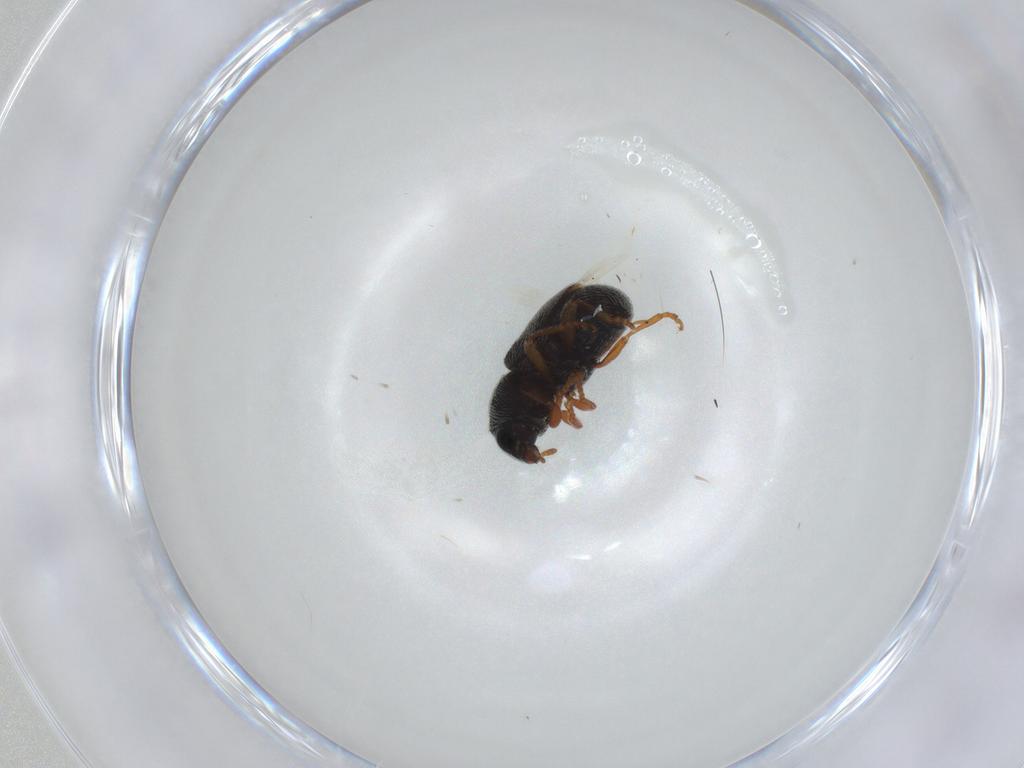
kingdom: Animalia
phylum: Arthropoda
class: Insecta
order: Coleoptera
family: Anthribidae
